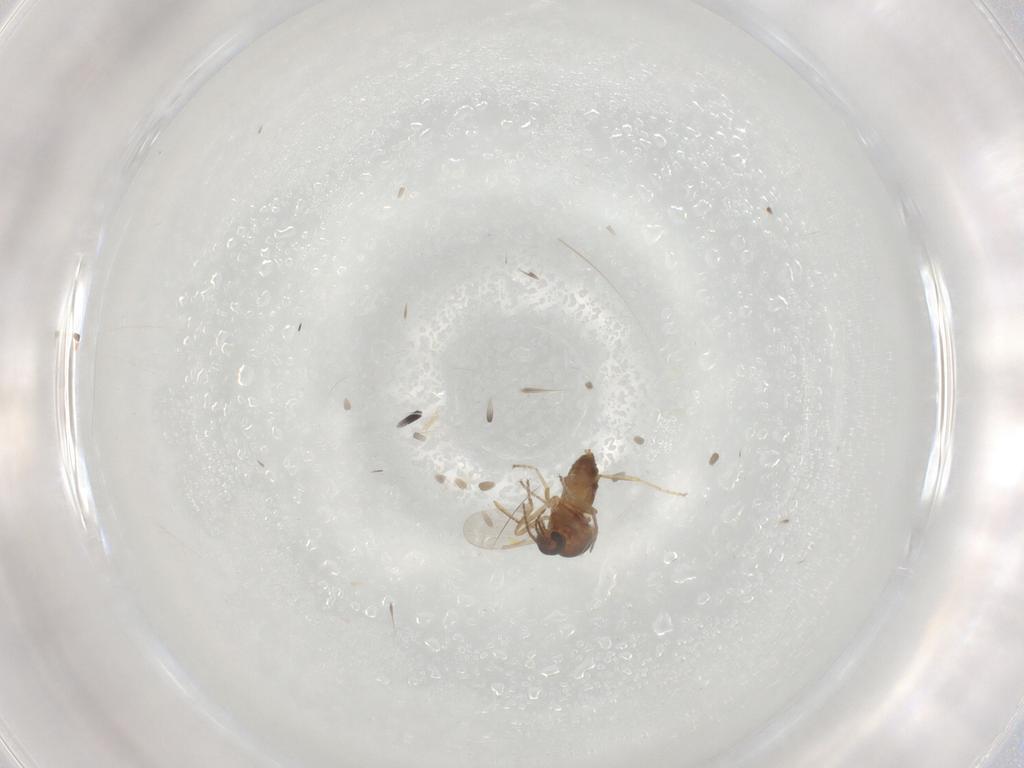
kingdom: Animalia
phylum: Arthropoda
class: Insecta
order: Diptera
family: Ceratopogonidae
